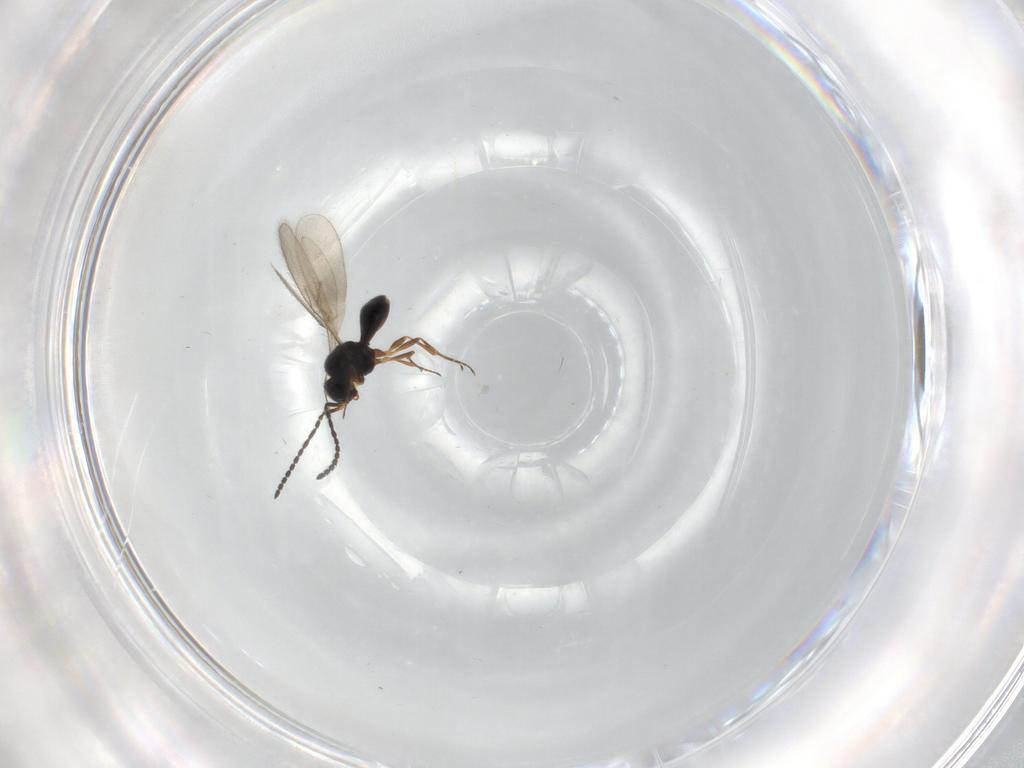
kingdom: Animalia
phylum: Arthropoda
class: Insecta
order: Hymenoptera
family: Scelionidae
